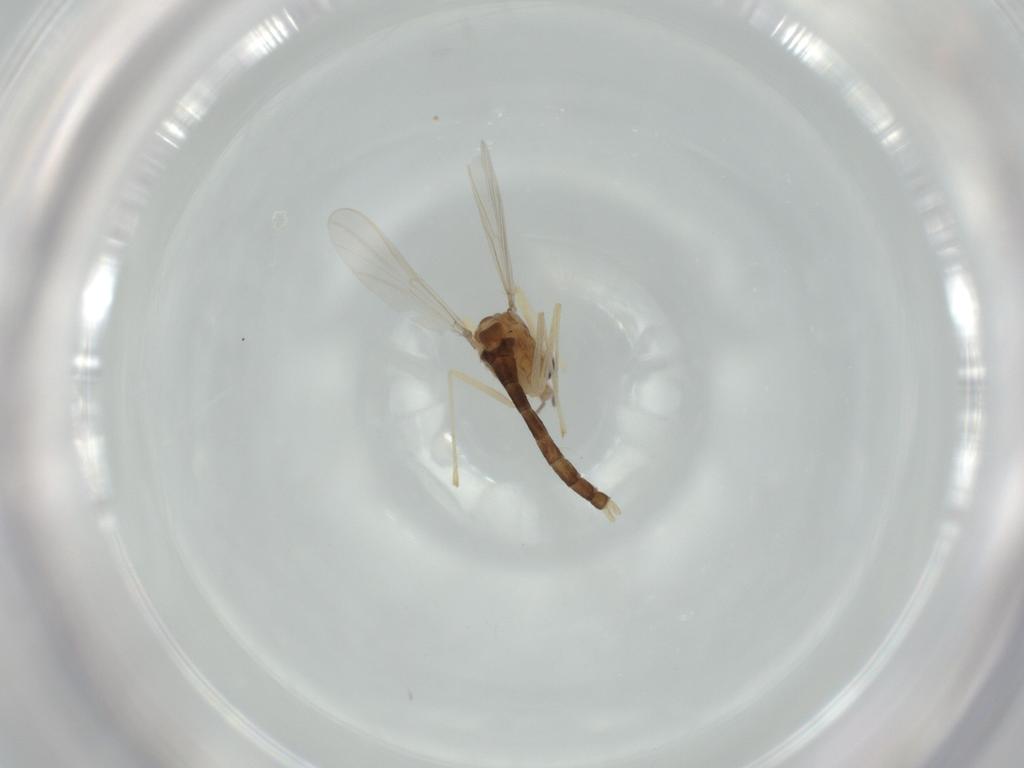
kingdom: Animalia
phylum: Arthropoda
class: Insecta
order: Diptera
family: Chironomidae
